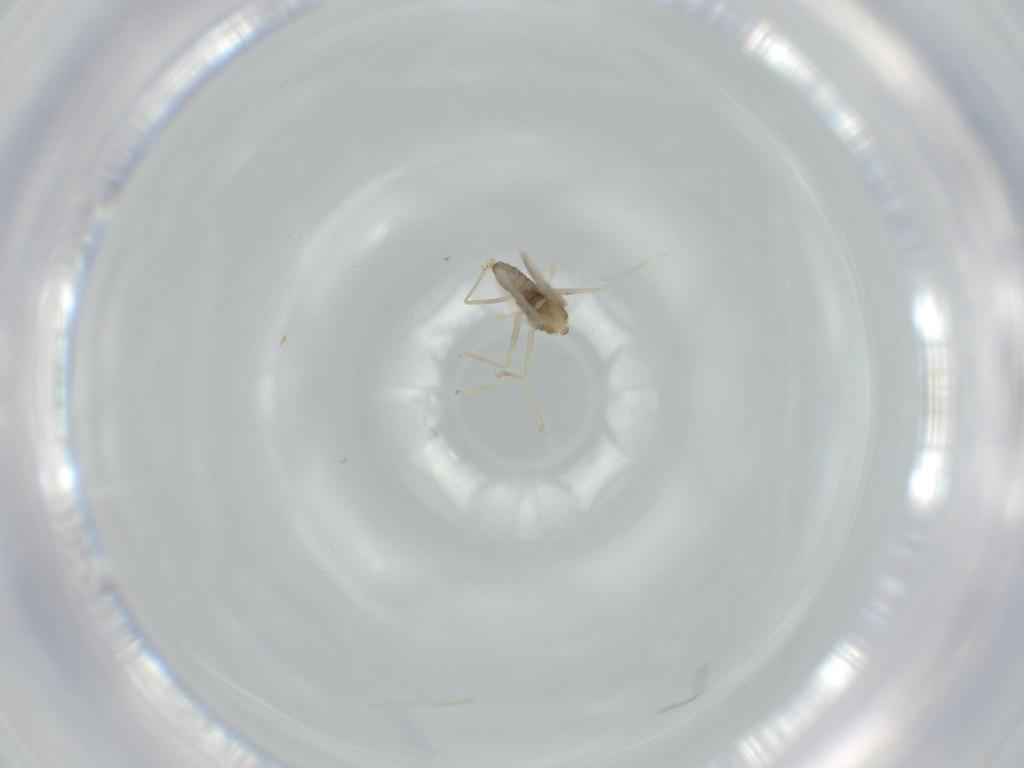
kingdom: Animalia
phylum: Arthropoda
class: Insecta
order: Diptera
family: Cecidomyiidae
